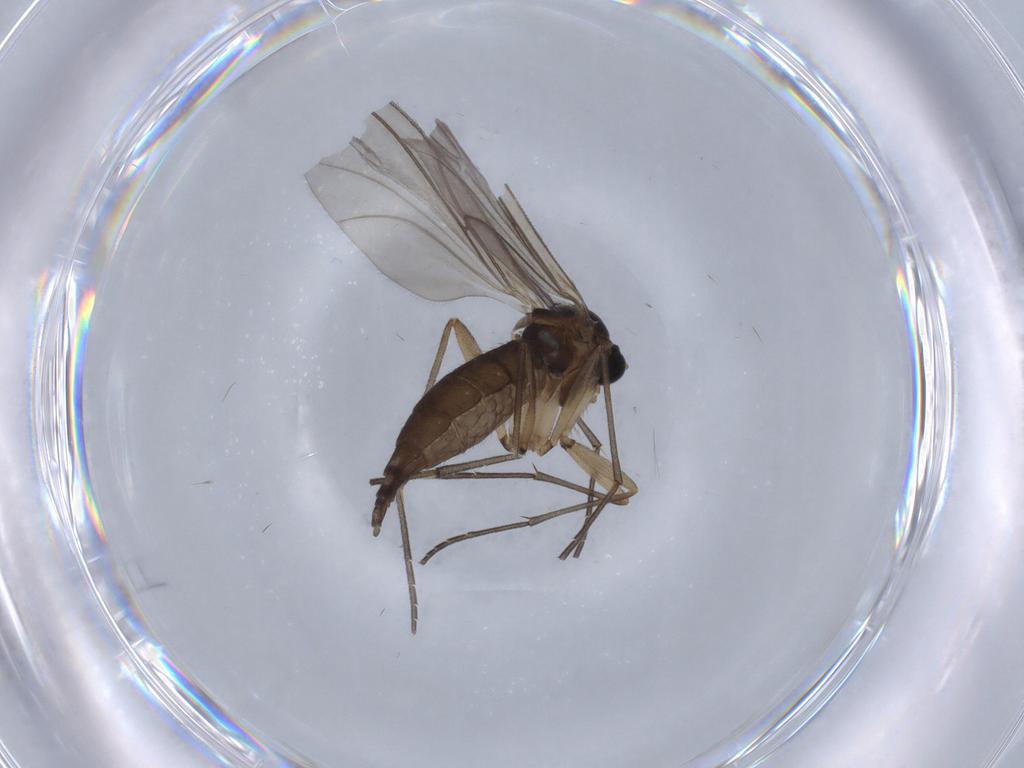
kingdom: Animalia
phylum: Arthropoda
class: Insecta
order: Diptera
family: Sciaridae
